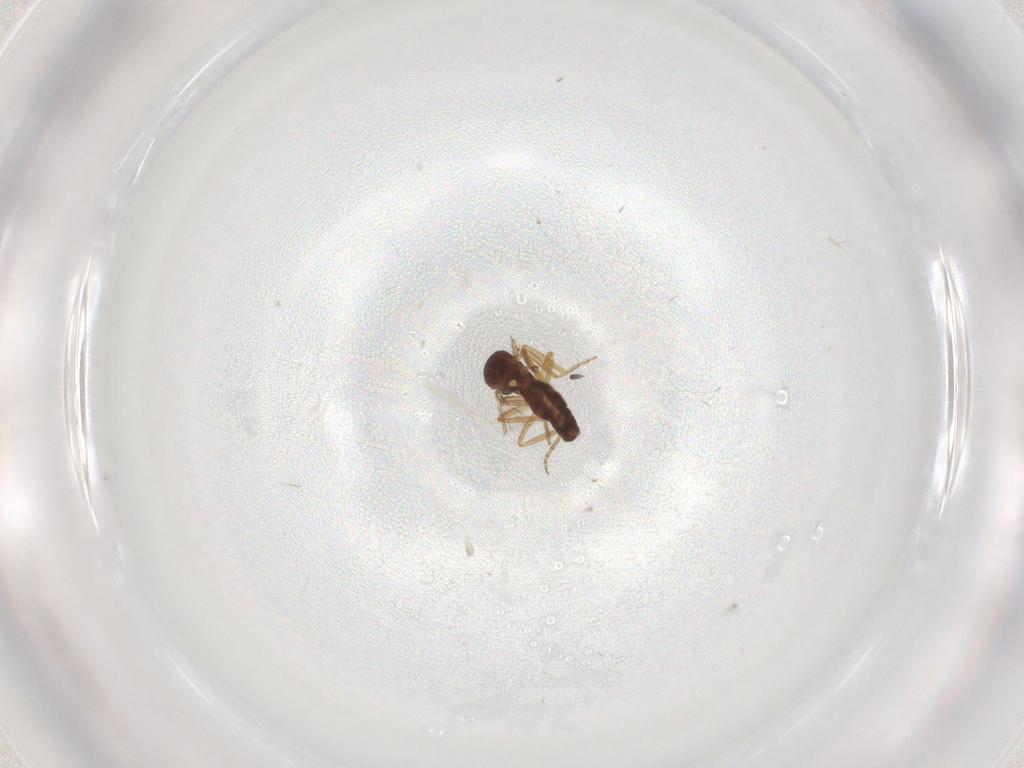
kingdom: Animalia
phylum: Arthropoda
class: Insecta
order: Diptera
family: Ceratopogonidae
